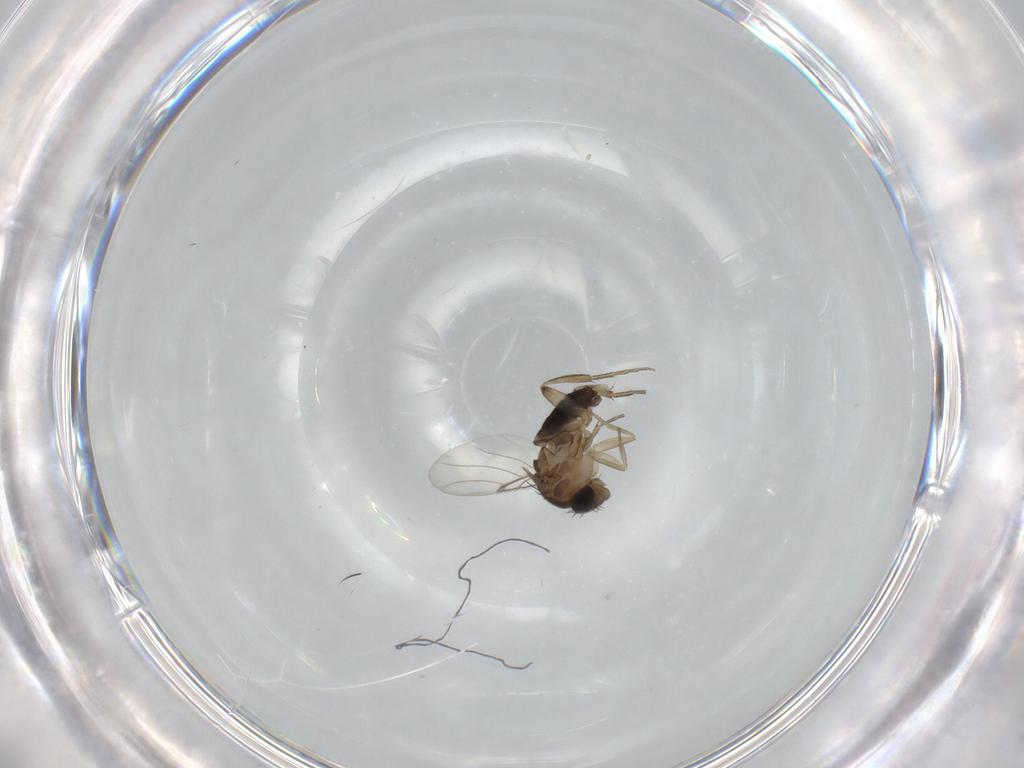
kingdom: Animalia
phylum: Arthropoda
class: Insecta
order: Diptera
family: Phoridae
